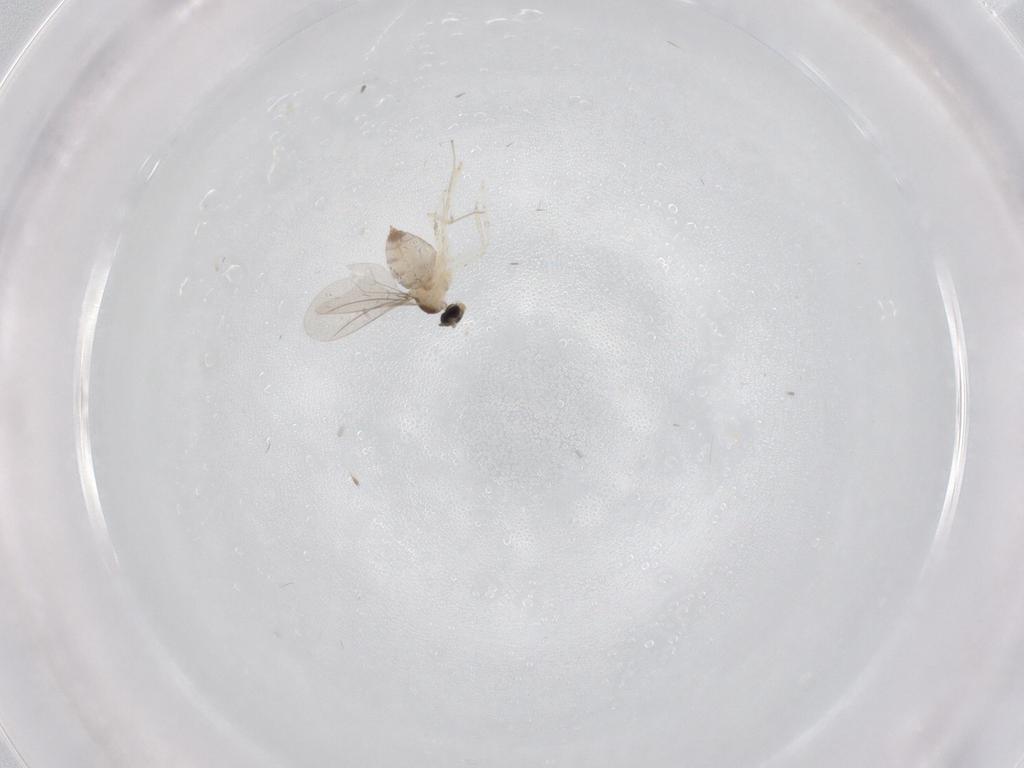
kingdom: Animalia
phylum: Arthropoda
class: Insecta
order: Diptera
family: Cecidomyiidae
